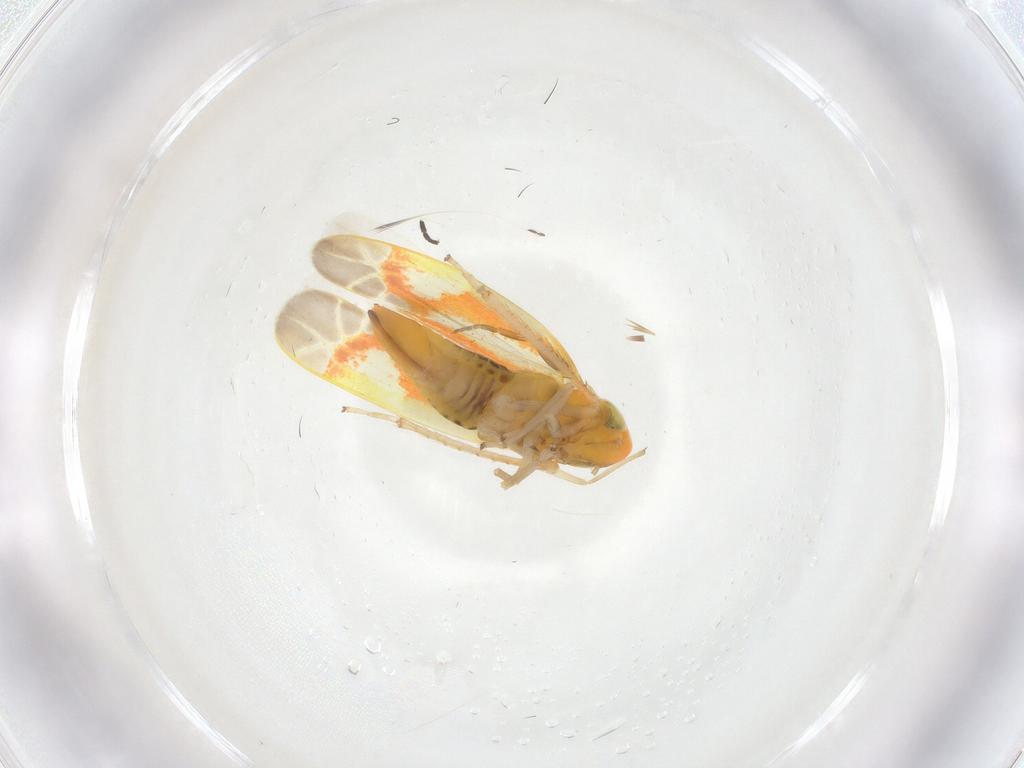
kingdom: Animalia
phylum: Arthropoda
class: Insecta
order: Hemiptera
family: Cicadellidae
